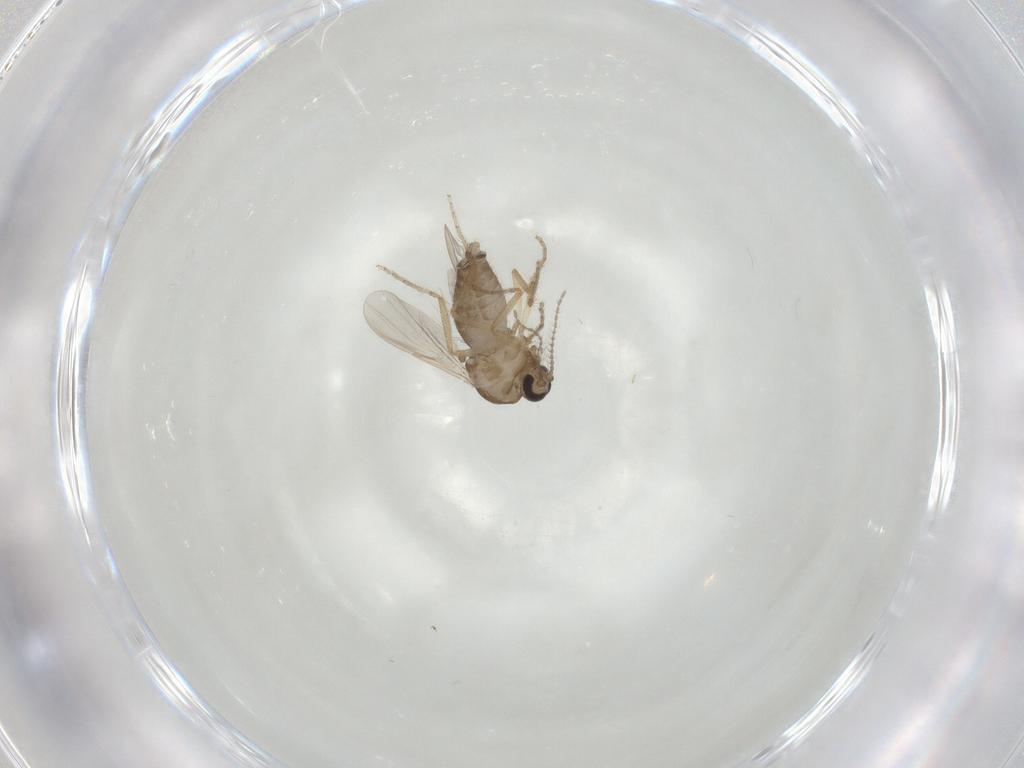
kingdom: Animalia
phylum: Arthropoda
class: Insecta
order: Diptera
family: Ceratopogonidae
